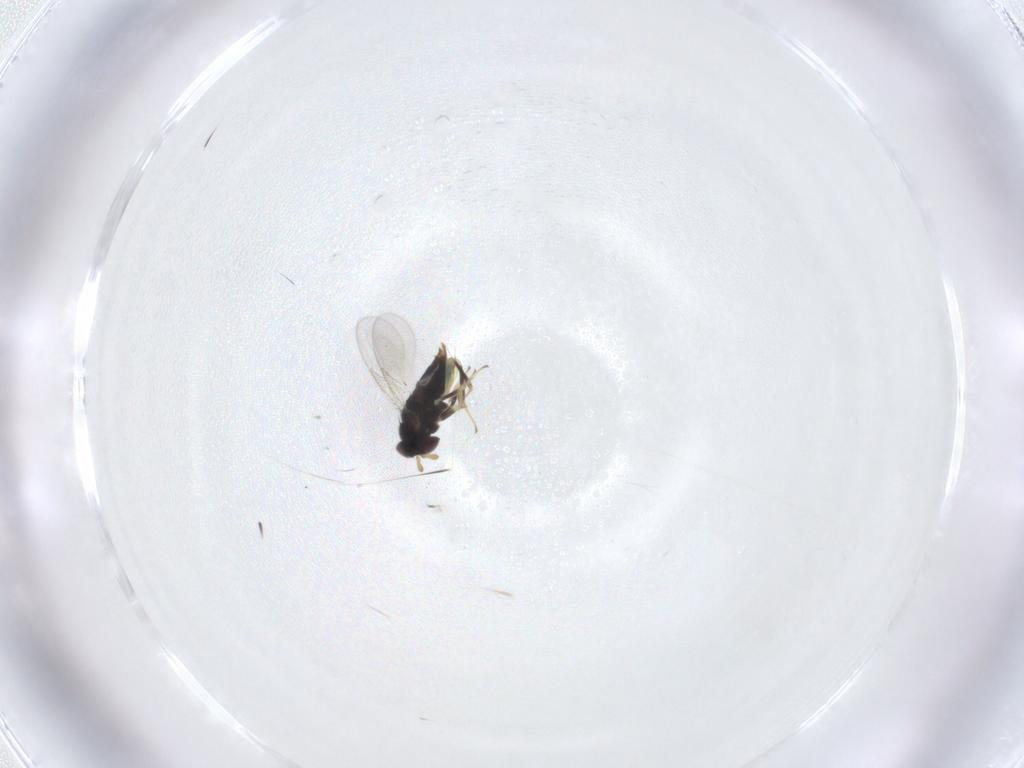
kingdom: Animalia
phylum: Arthropoda
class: Insecta
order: Hymenoptera
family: Aphelinidae
